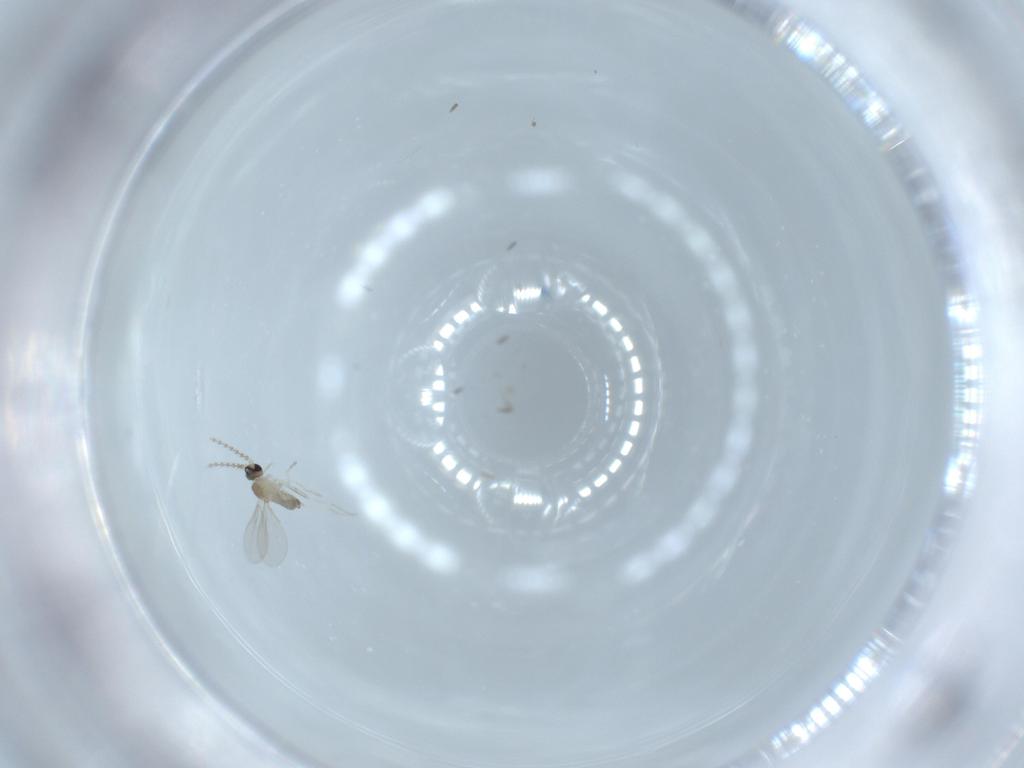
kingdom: Animalia
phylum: Arthropoda
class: Insecta
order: Diptera
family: Cecidomyiidae
